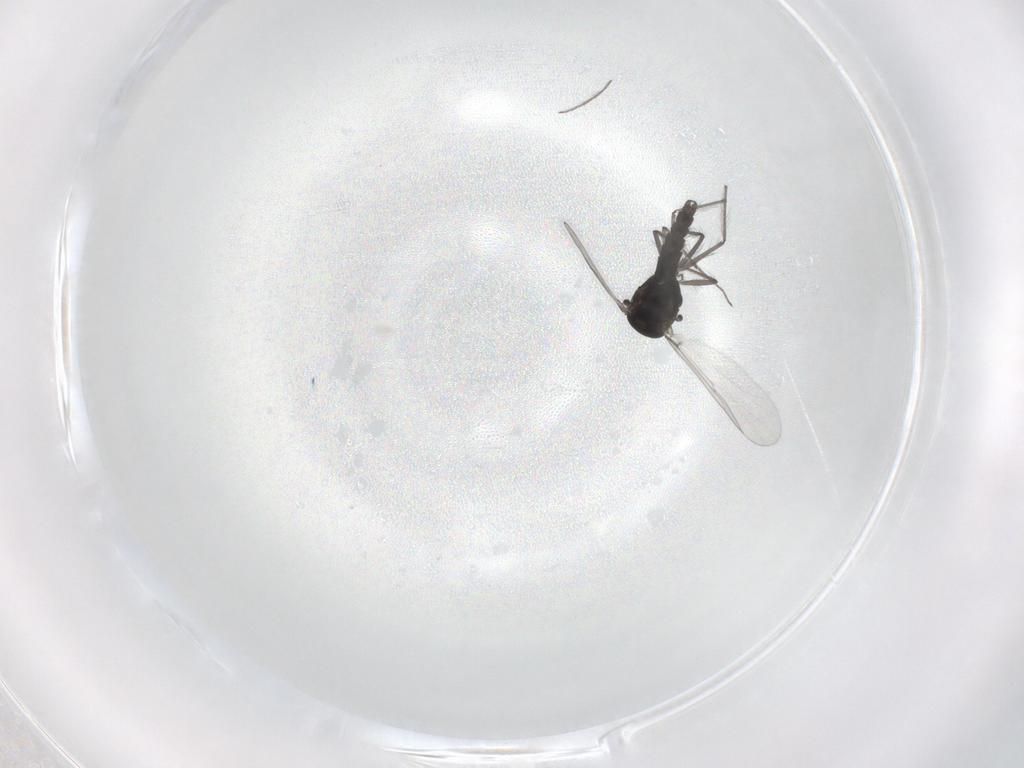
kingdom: Animalia
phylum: Arthropoda
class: Insecta
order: Diptera
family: Chironomidae
